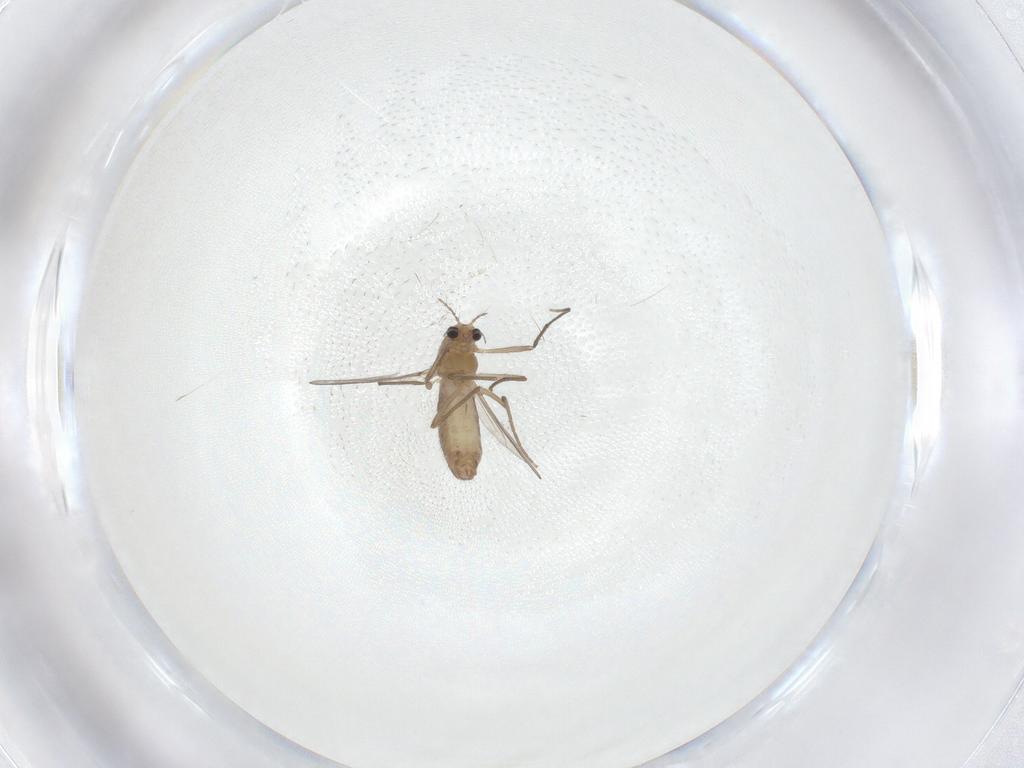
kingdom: Animalia
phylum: Arthropoda
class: Insecta
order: Diptera
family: Chironomidae
